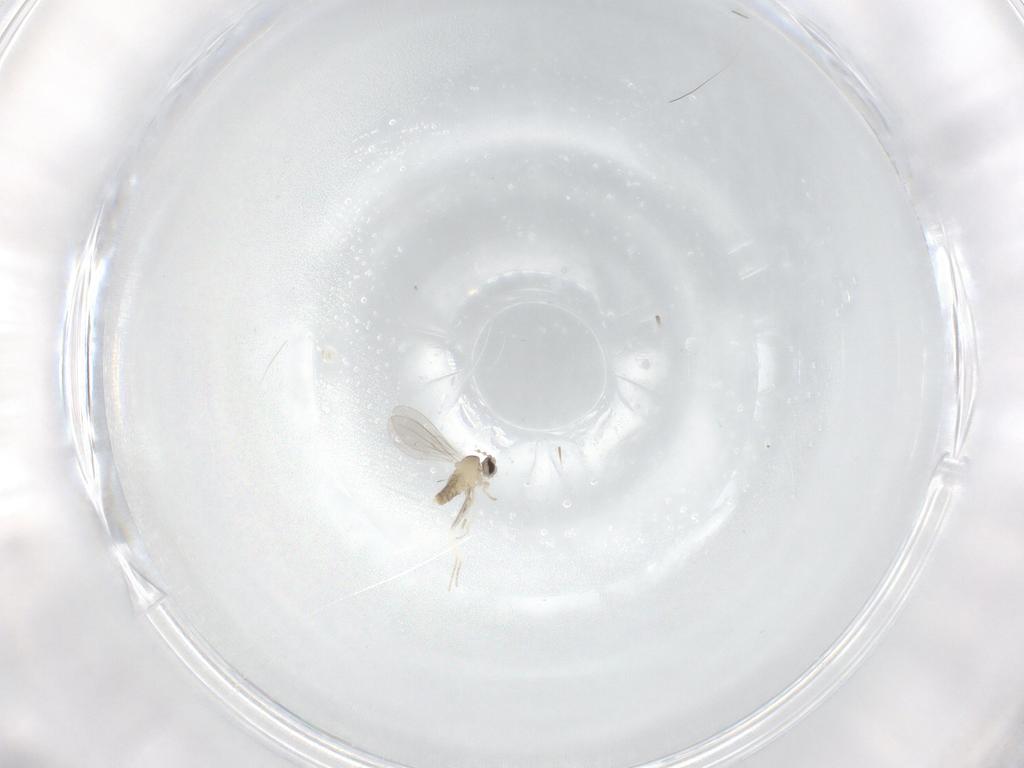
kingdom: Animalia
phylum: Arthropoda
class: Insecta
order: Diptera
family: Cecidomyiidae
